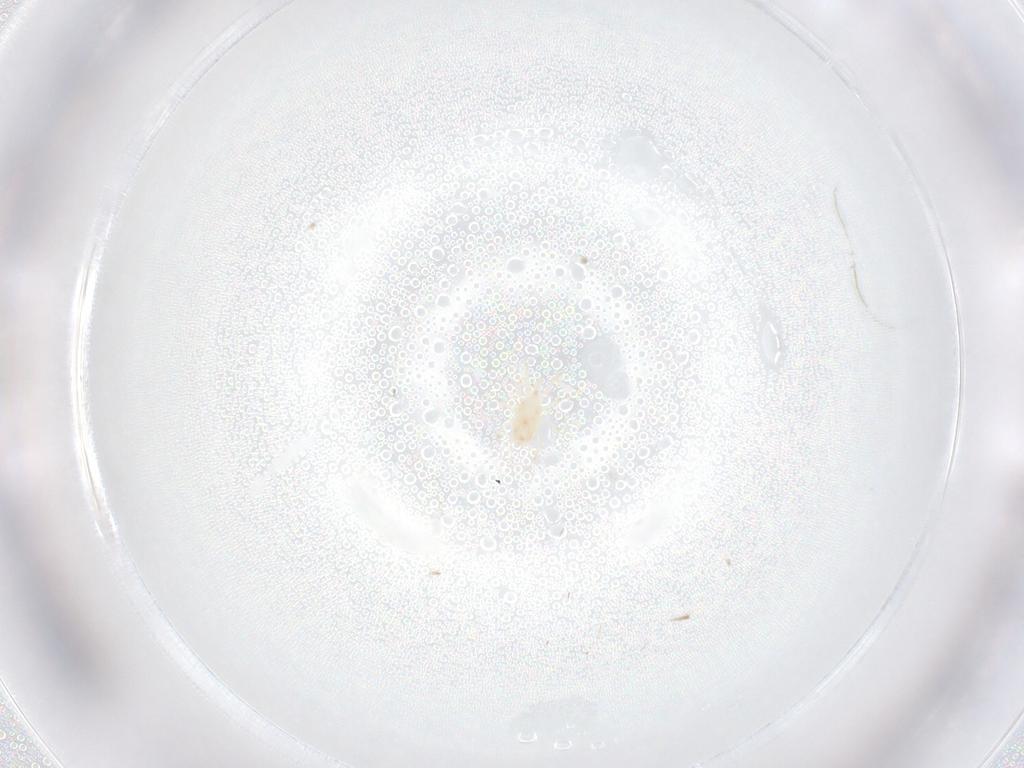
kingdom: Animalia
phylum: Arthropoda
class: Arachnida
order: Mesostigmata
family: Phytoseiidae
